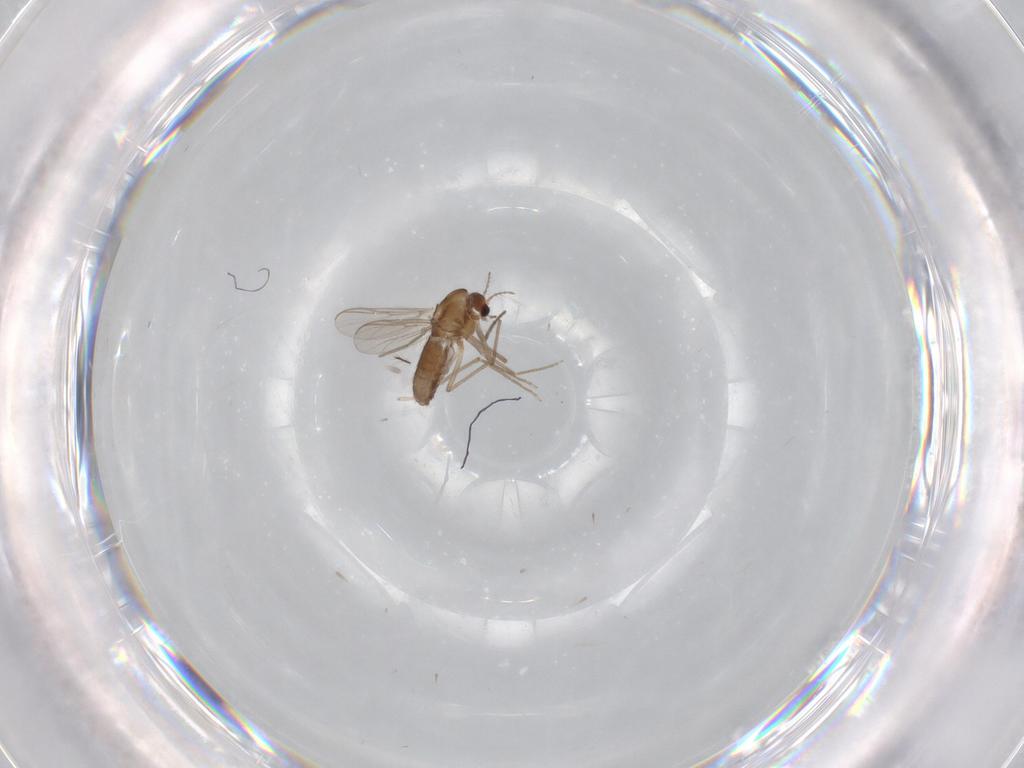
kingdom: Animalia
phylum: Arthropoda
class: Insecta
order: Diptera
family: Chironomidae
